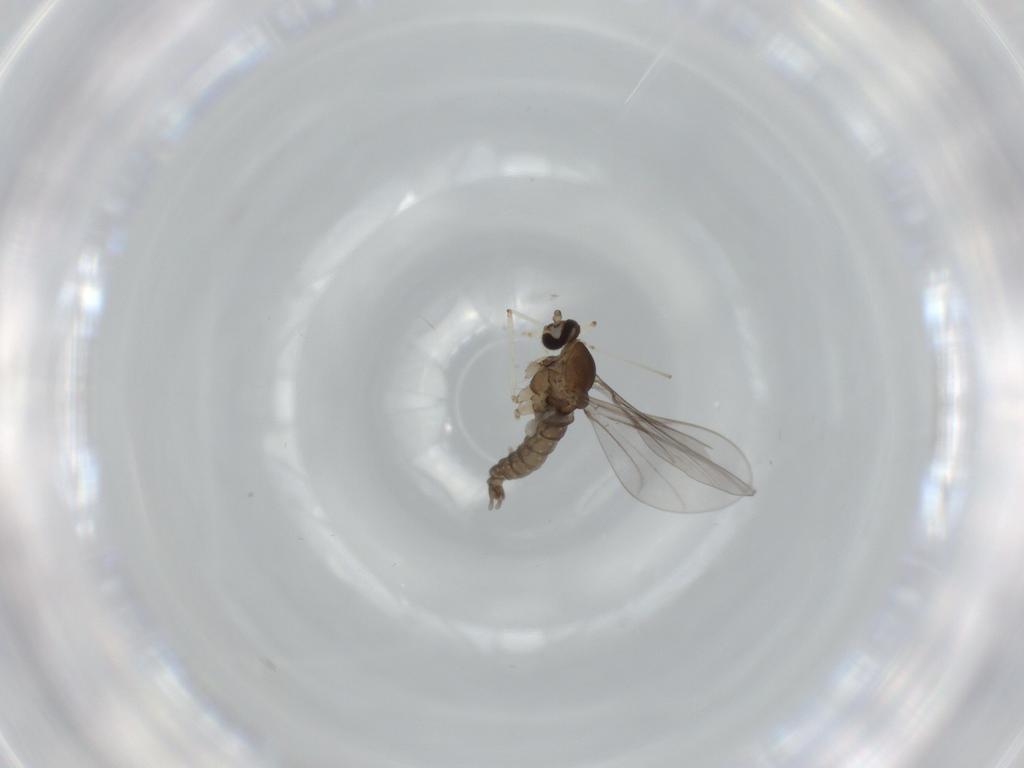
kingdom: Animalia
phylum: Arthropoda
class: Insecta
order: Diptera
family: Cecidomyiidae
